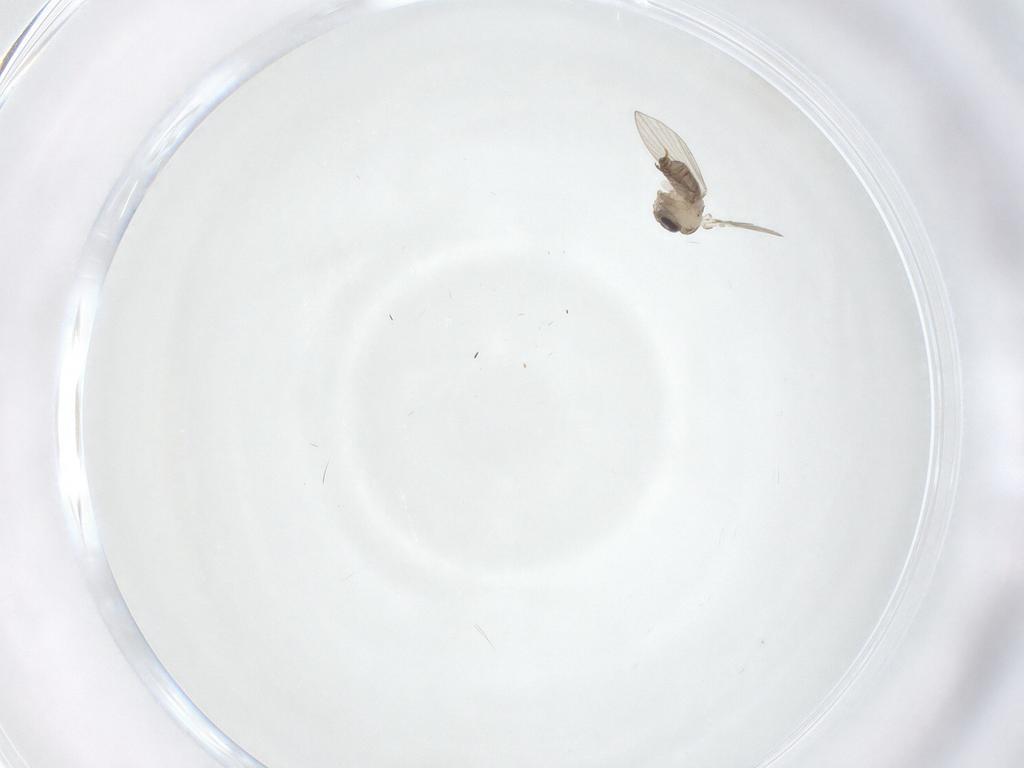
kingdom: Animalia
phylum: Arthropoda
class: Insecta
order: Diptera
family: Psychodidae
